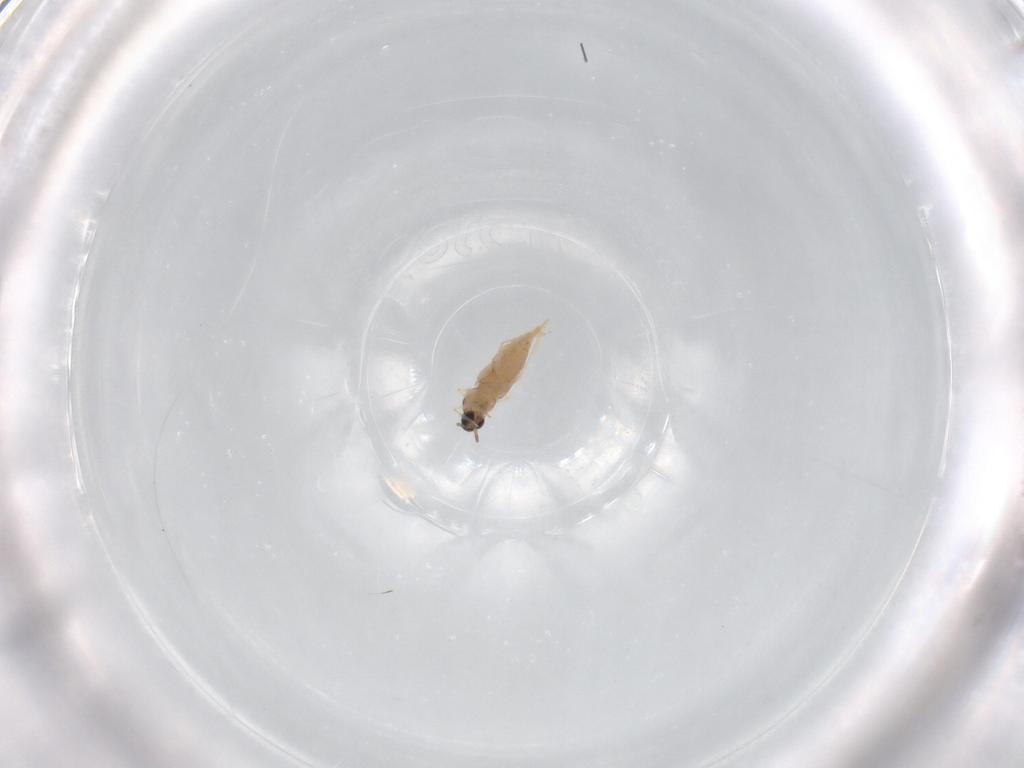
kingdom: Animalia
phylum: Arthropoda
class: Insecta
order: Diptera
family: Cecidomyiidae
